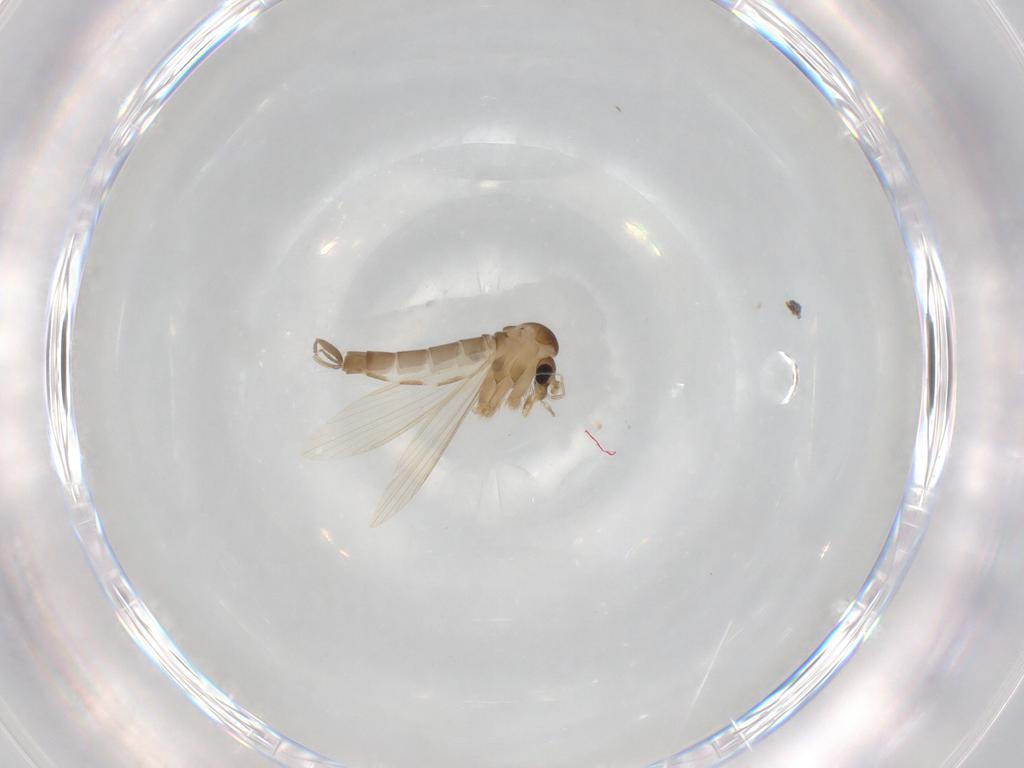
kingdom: Animalia
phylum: Arthropoda
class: Insecta
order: Diptera
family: Psychodidae
